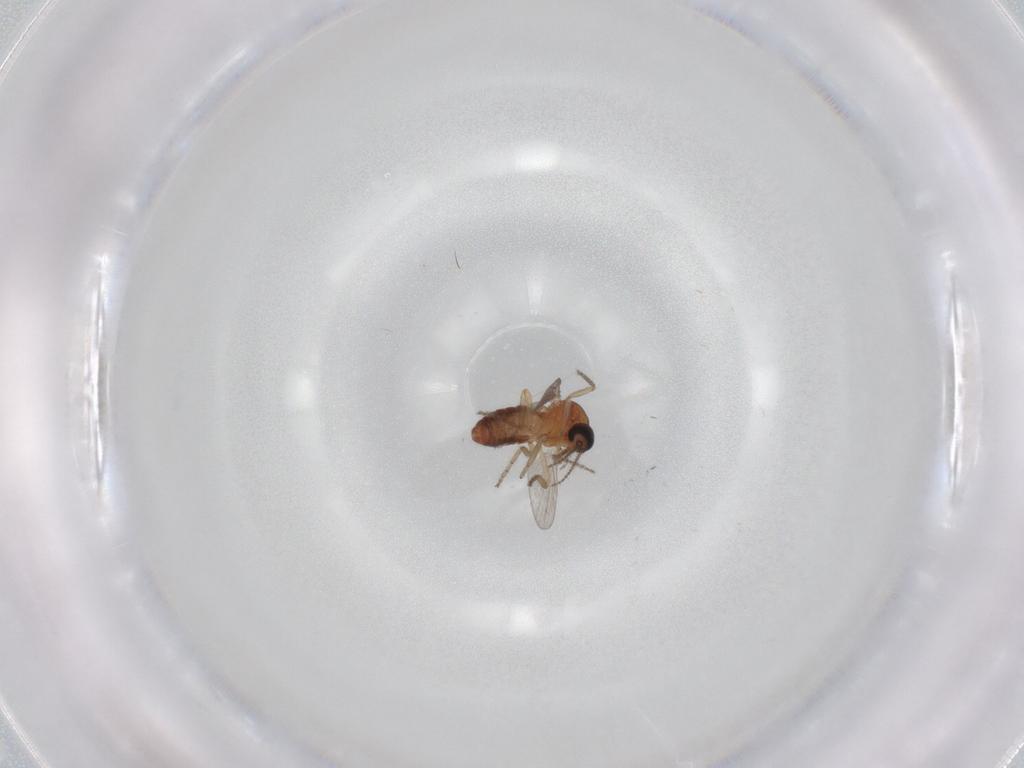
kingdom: Animalia
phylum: Arthropoda
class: Insecta
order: Diptera
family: Ceratopogonidae
